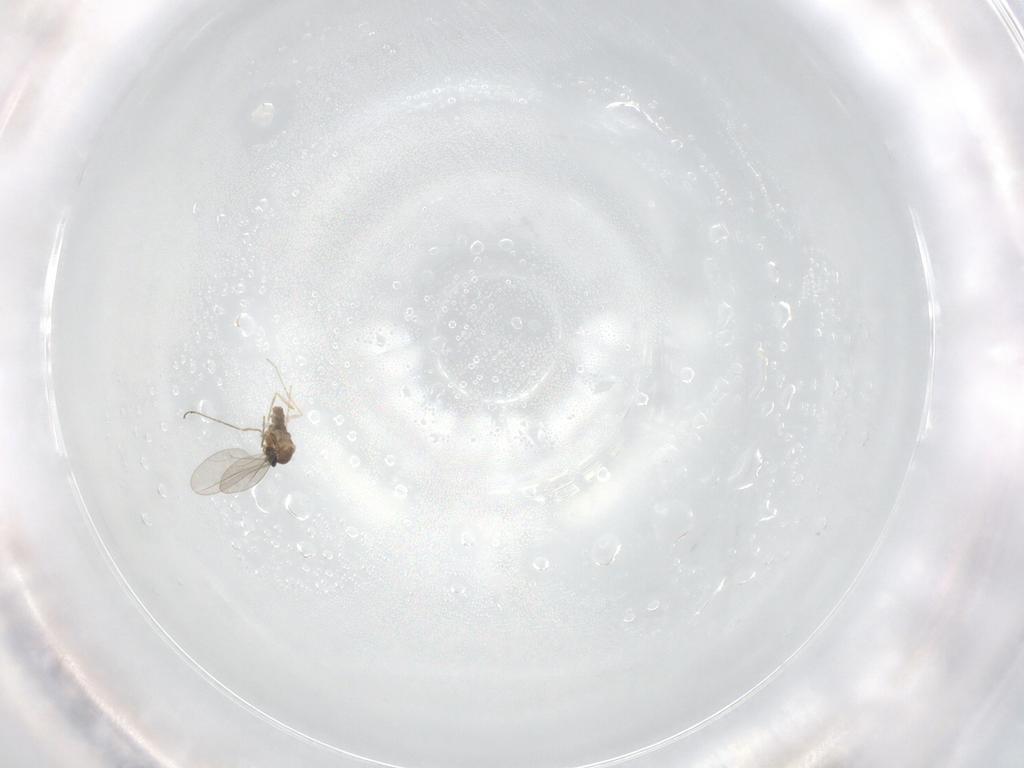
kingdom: Animalia
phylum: Arthropoda
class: Insecta
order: Diptera
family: Cecidomyiidae
